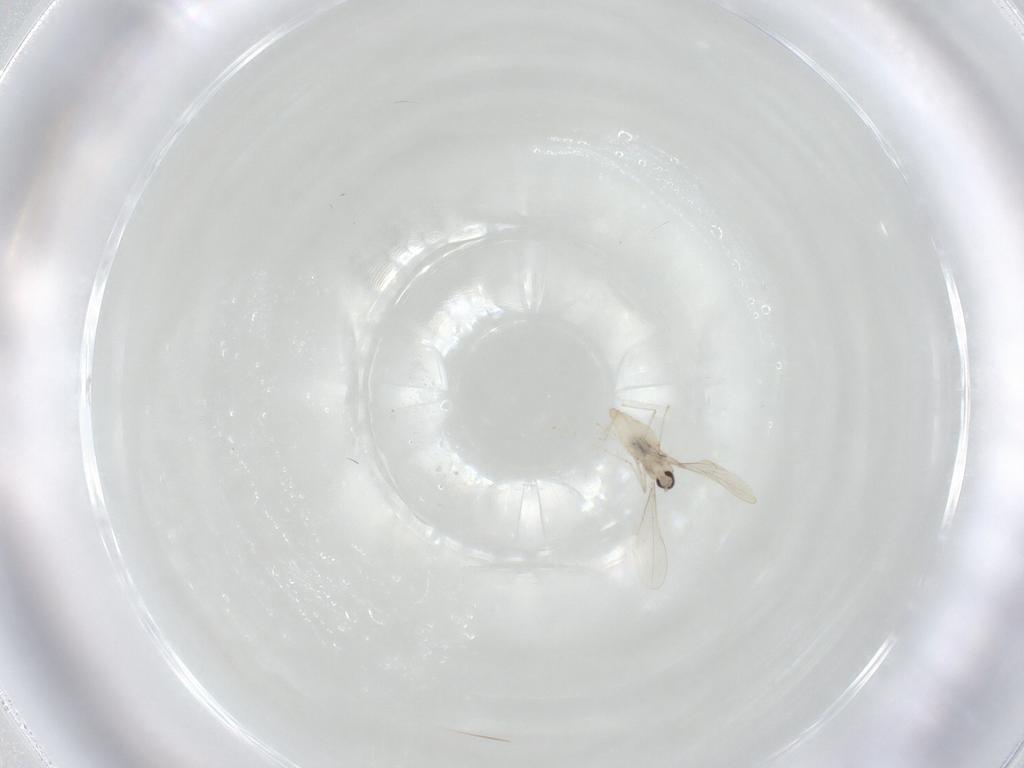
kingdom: Animalia
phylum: Arthropoda
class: Insecta
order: Diptera
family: Cecidomyiidae
